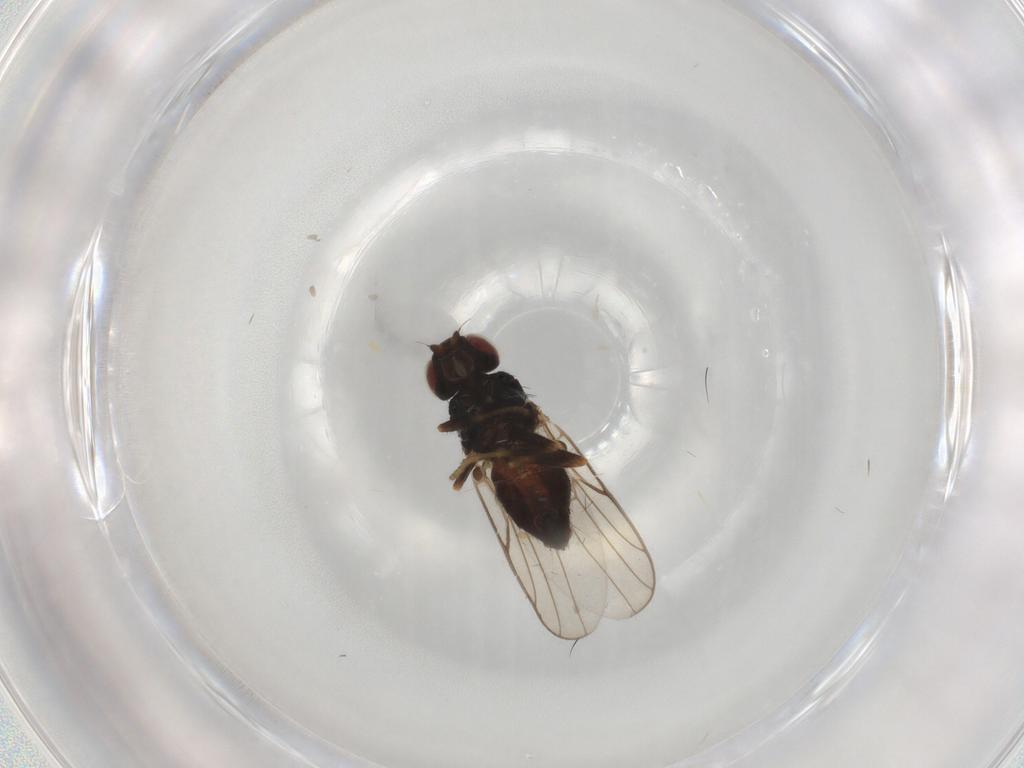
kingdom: Animalia
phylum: Arthropoda
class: Insecta
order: Diptera
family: Chloropidae
